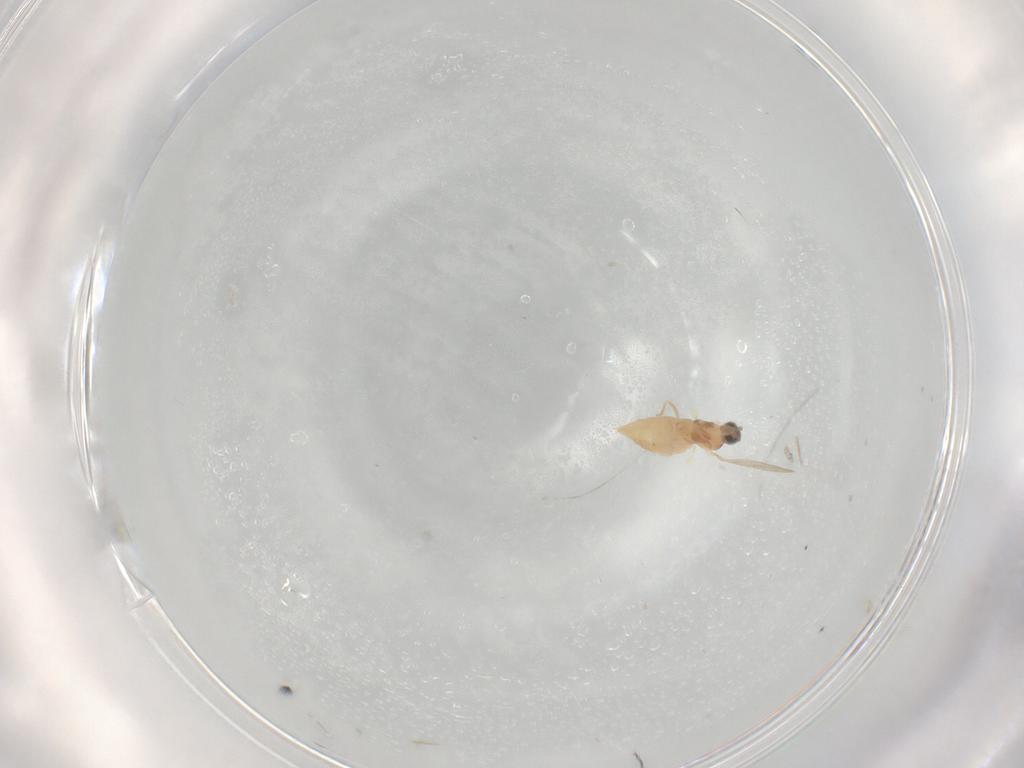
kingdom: Animalia
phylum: Arthropoda
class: Insecta
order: Diptera
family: Cecidomyiidae
